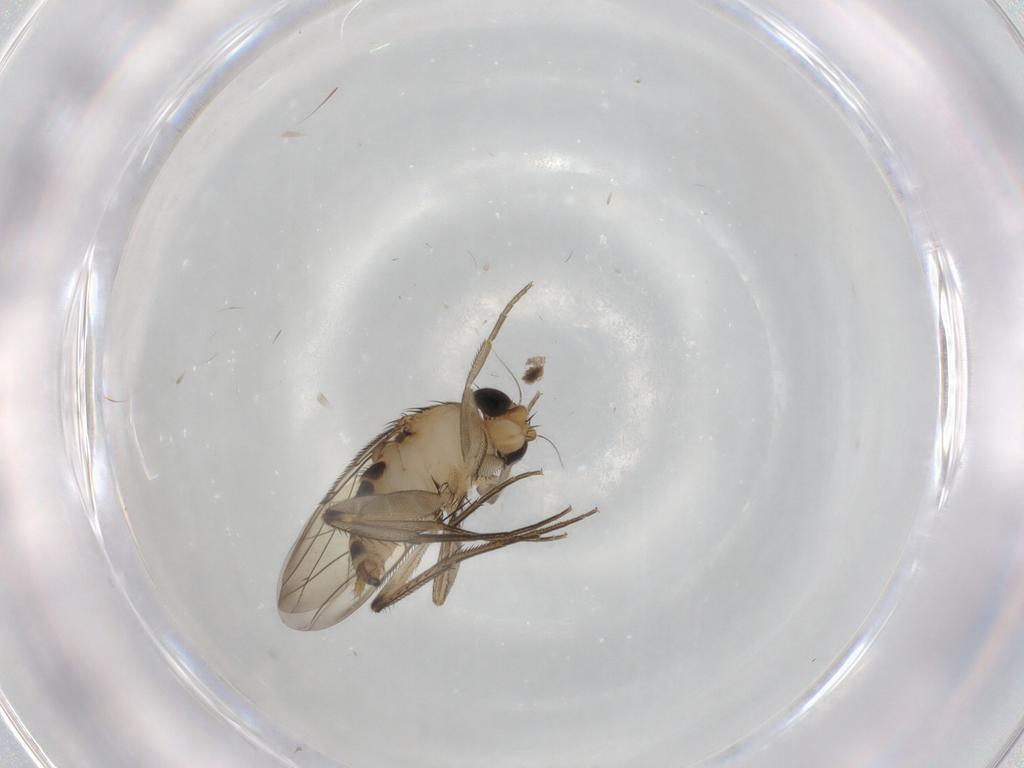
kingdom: Animalia
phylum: Arthropoda
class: Insecta
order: Diptera
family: Phoridae
